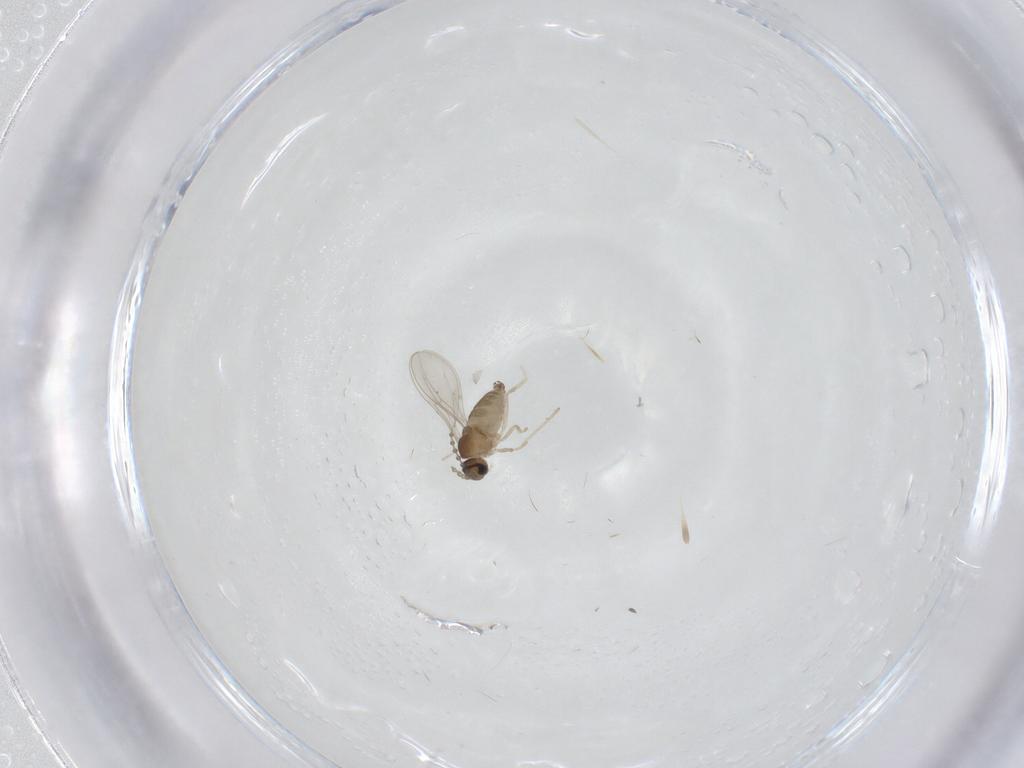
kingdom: Animalia
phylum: Arthropoda
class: Insecta
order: Diptera
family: Cecidomyiidae
